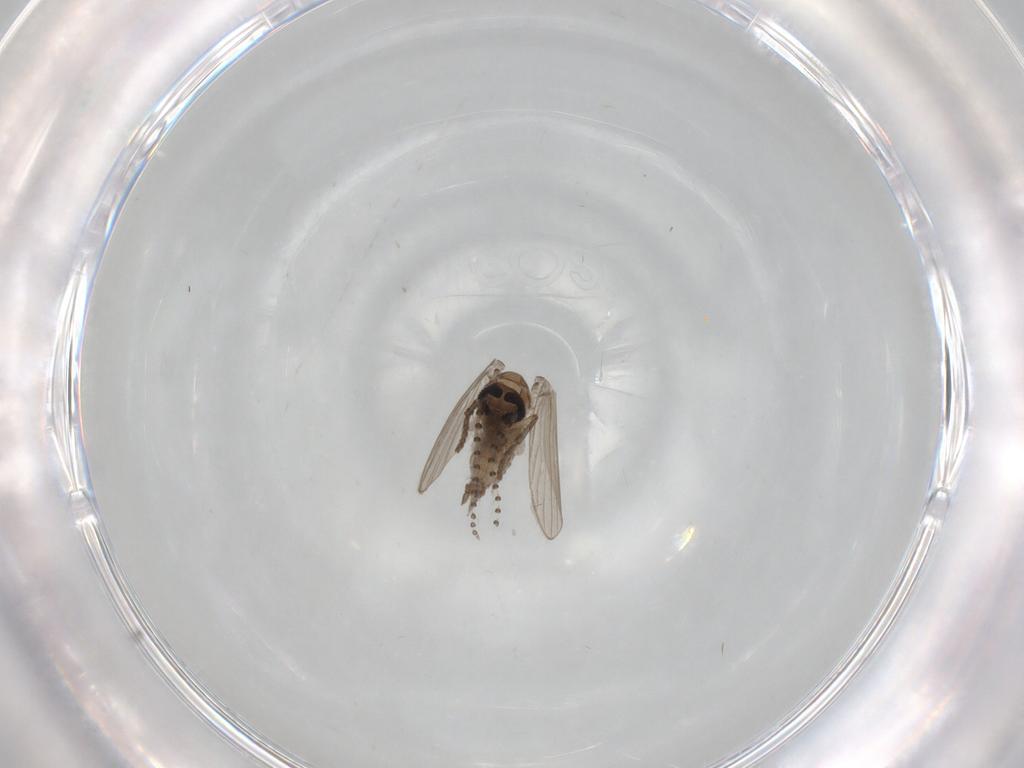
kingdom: Animalia
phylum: Arthropoda
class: Insecta
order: Diptera
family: Psychodidae
